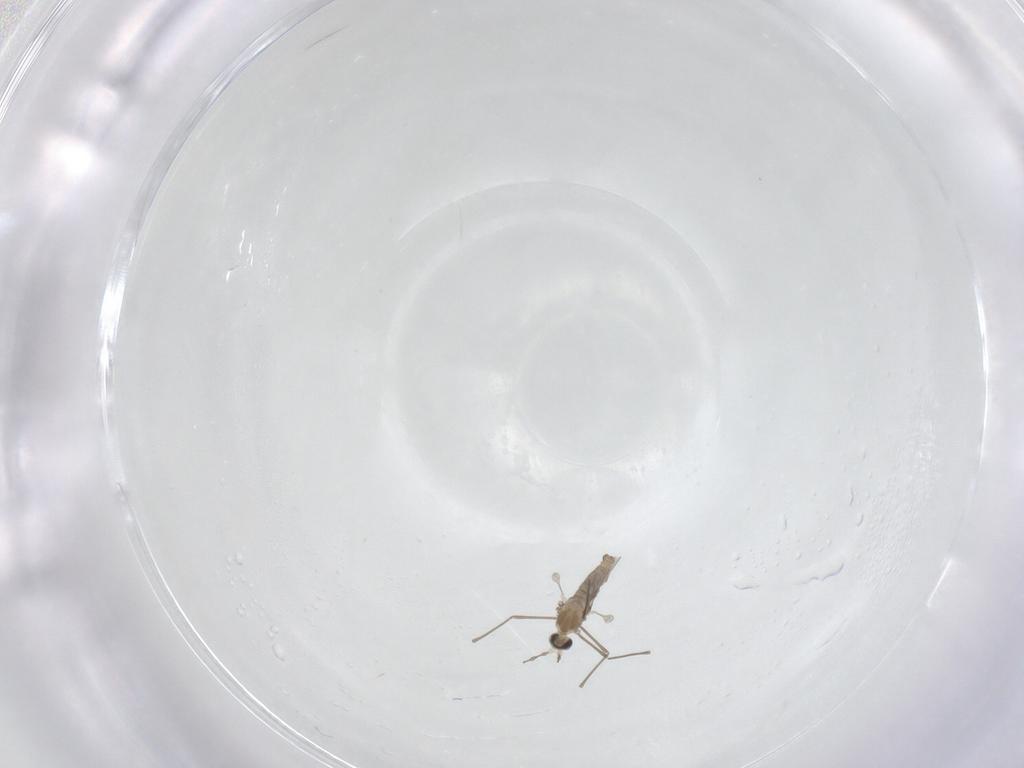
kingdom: Animalia
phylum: Arthropoda
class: Insecta
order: Diptera
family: Cecidomyiidae
